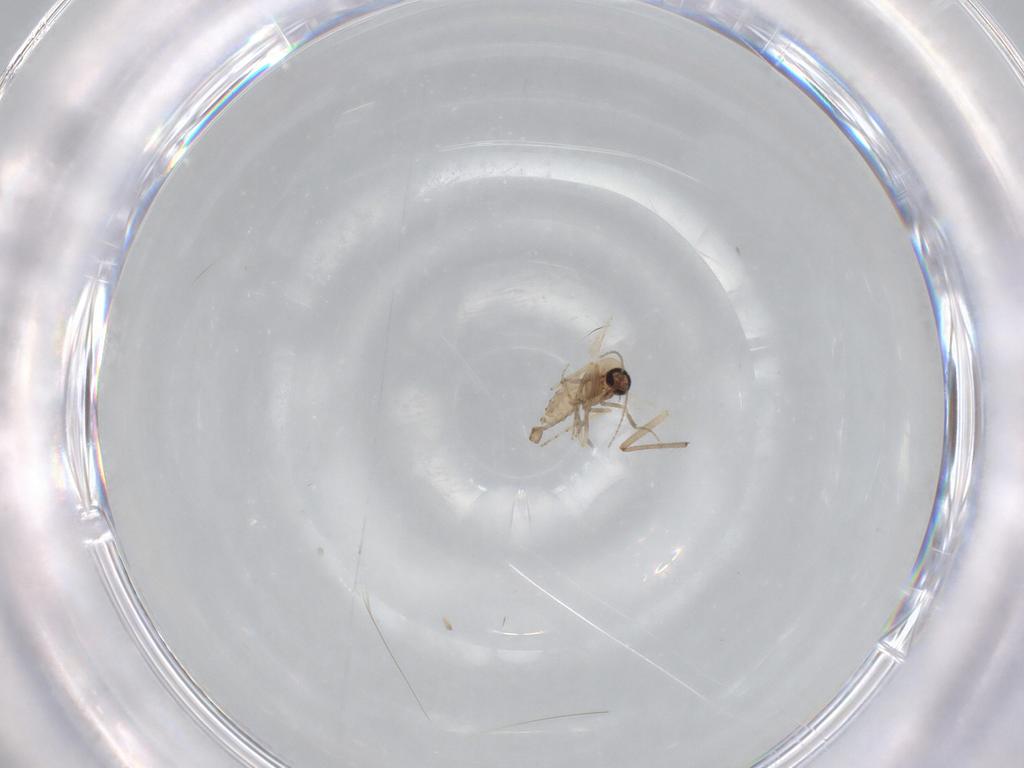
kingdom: Animalia
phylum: Arthropoda
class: Insecta
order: Diptera
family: Ceratopogonidae
